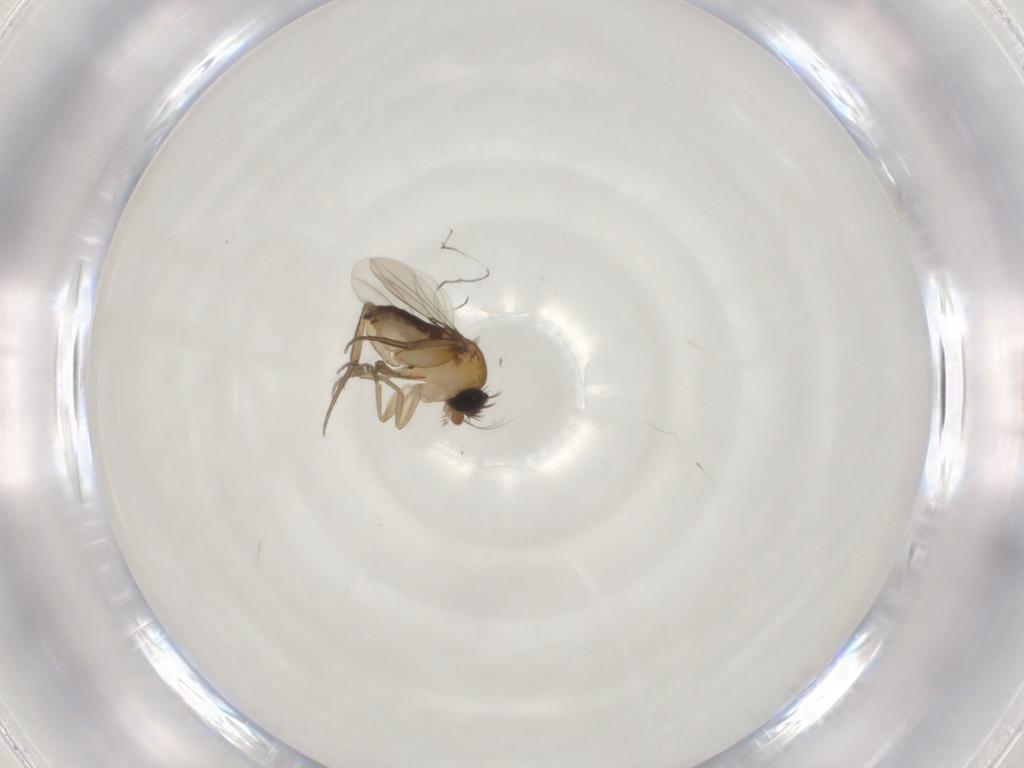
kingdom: Animalia
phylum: Arthropoda
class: Insecta
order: Diptera
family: Phoridae
